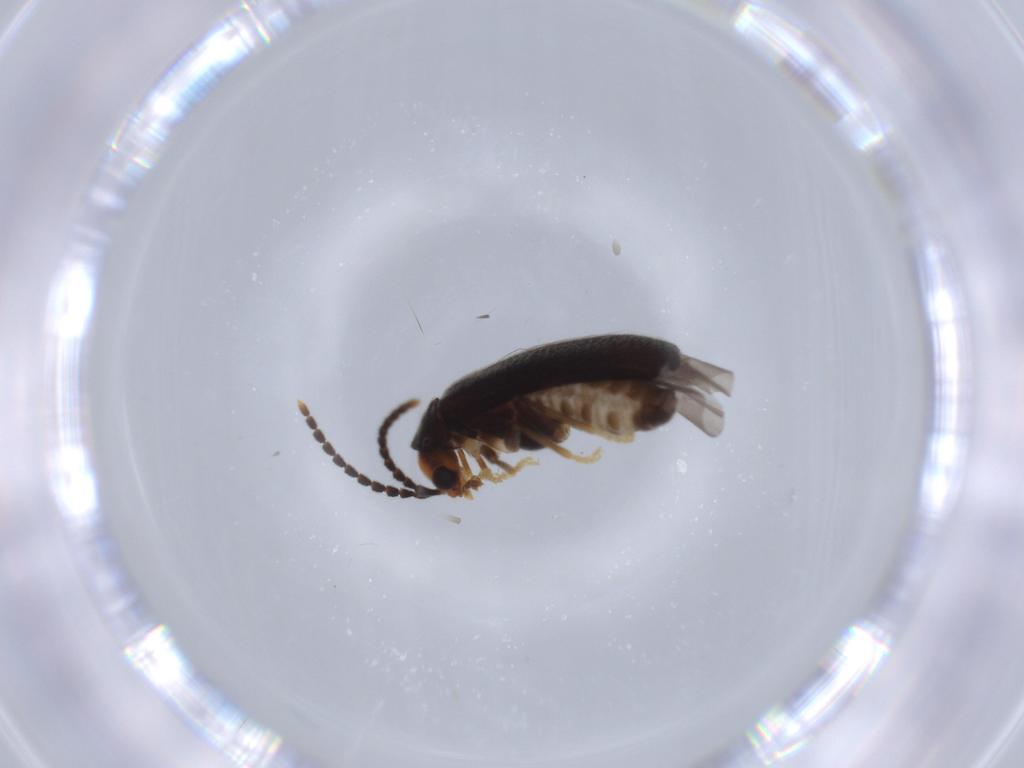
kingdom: Animalia
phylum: Arthropoda
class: Insecta
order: Coleoptera
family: Cantharidae
